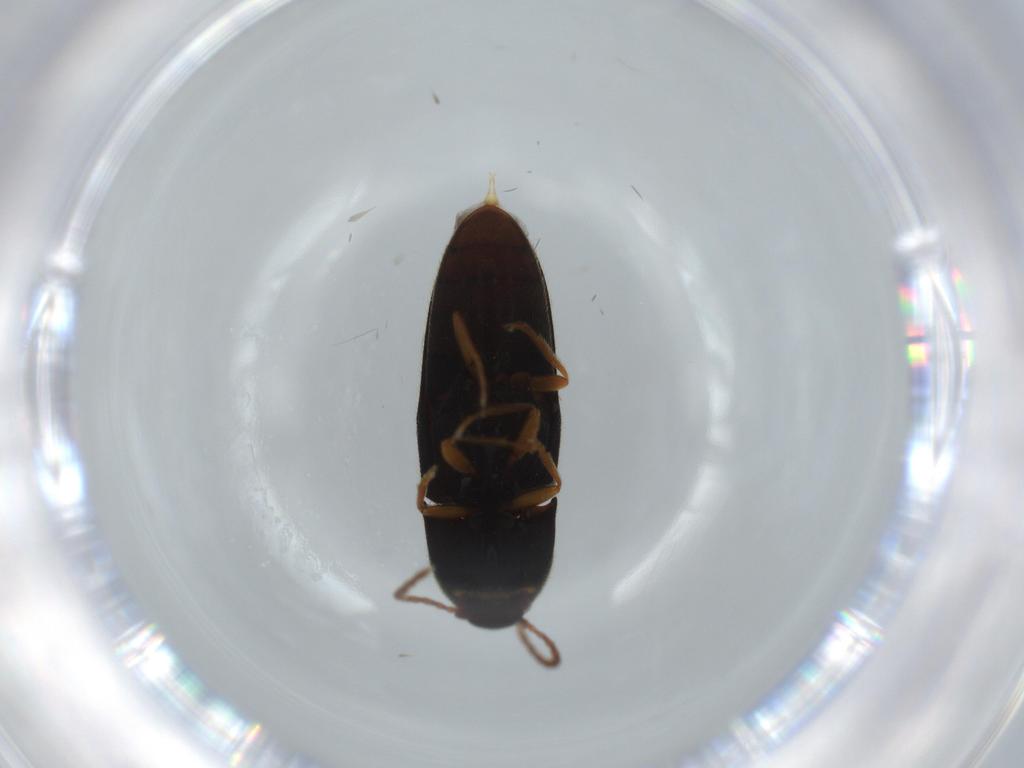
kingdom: Animalia
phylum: Arthropoda
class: Insecta
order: Coleoptera
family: Elateridae
